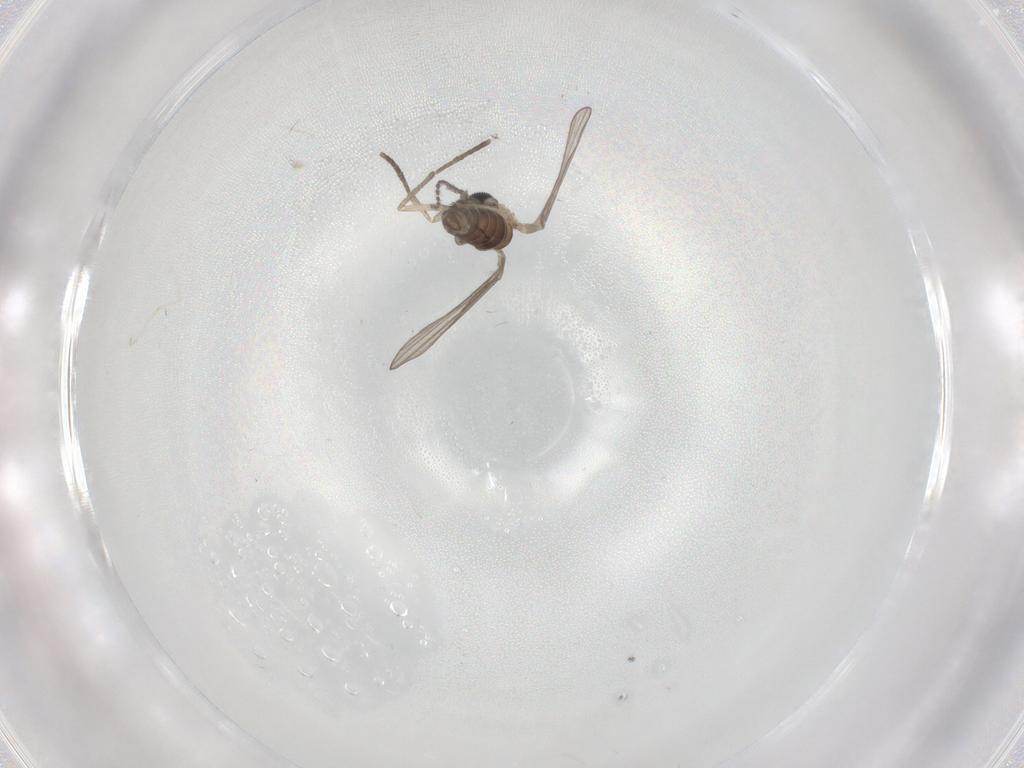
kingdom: Animalia
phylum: Arthropoda
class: Insecta
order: Diptera
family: Psychodidae
